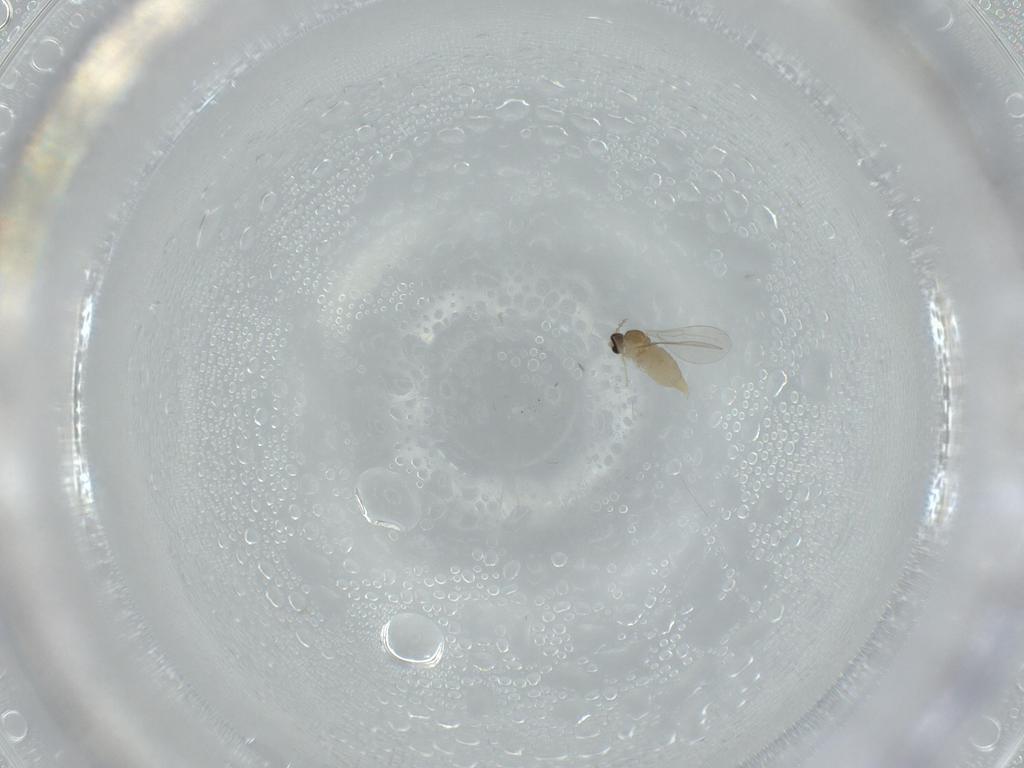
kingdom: Animalia
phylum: Arthropoda
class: Insecta
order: Diptera
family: Cecidomyiidae
